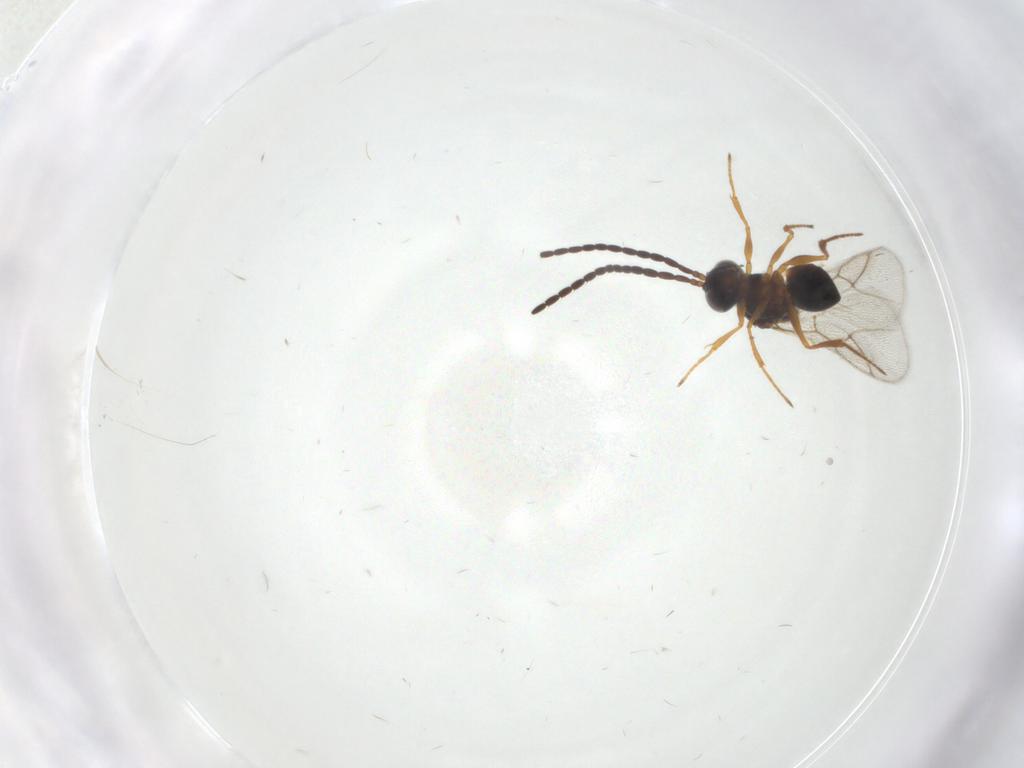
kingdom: Animalia
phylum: Arthropoda
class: Insecta
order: Hymenoptera
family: Figitidae
